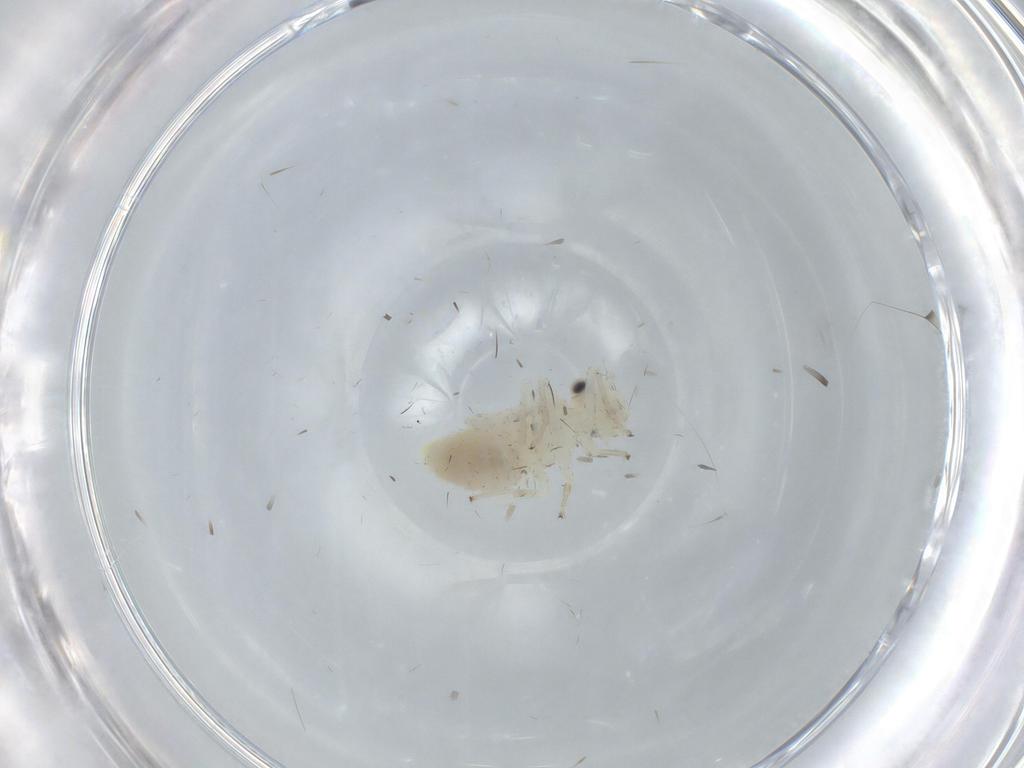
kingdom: Animalia
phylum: Arthropoda
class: Insecta
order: Psocodea
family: Caeciliusidae
